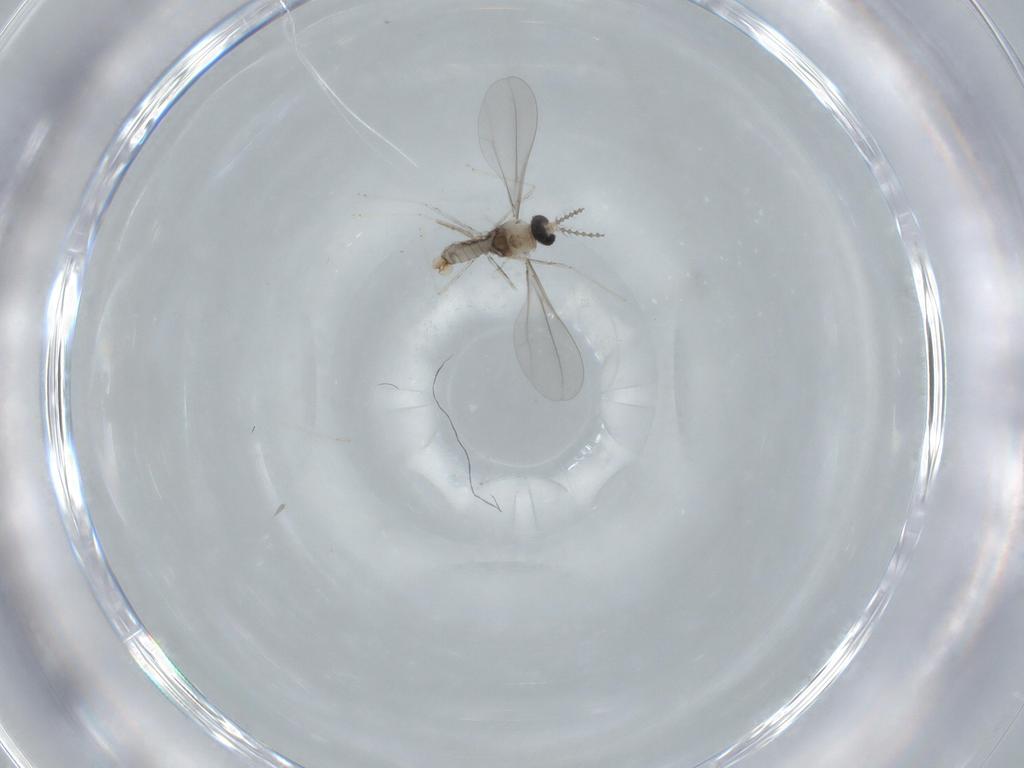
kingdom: Animalia
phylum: Arthropoda
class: Insecta
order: Diptera
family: Cecidomyiidae
